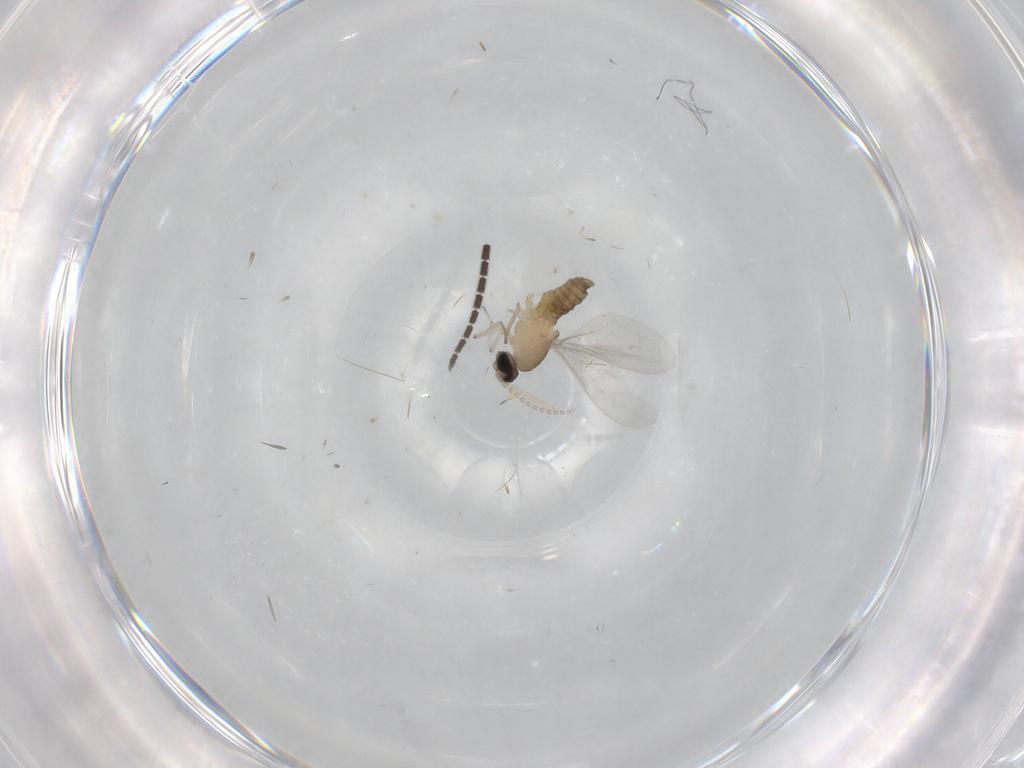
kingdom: Animalia
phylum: Arthropoda
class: Insecta
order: Diptera
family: Cecidomyiidae
